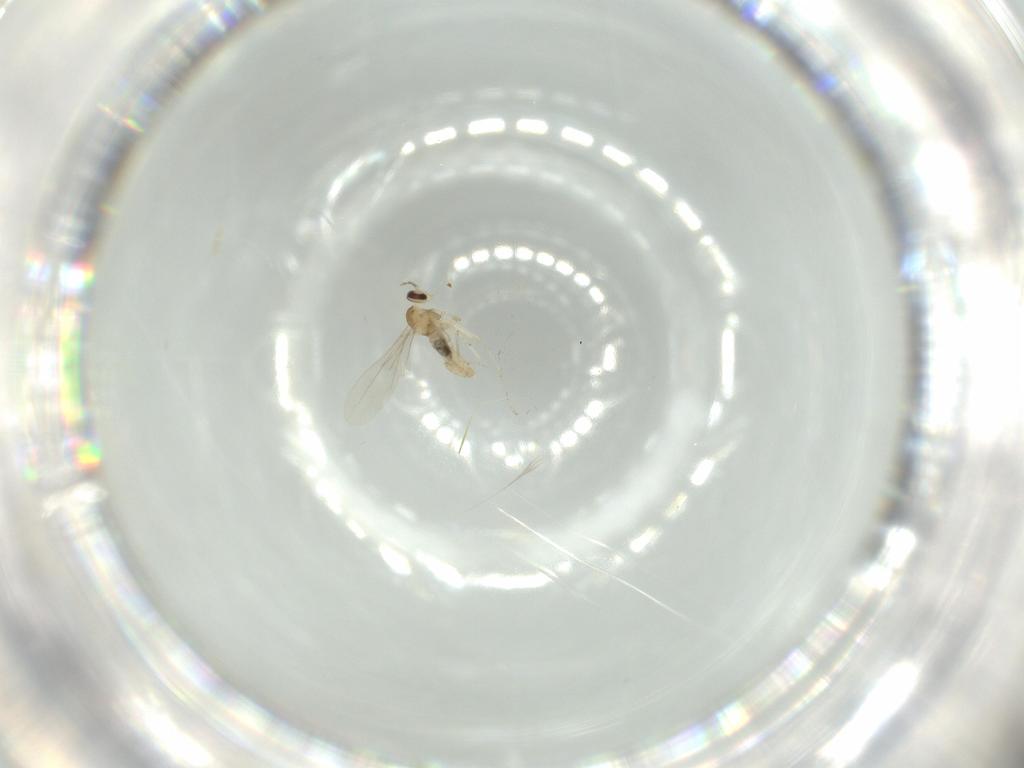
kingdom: Animalia
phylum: Arthropoda
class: Insecta
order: Diptera
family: Cecidomyiidae
